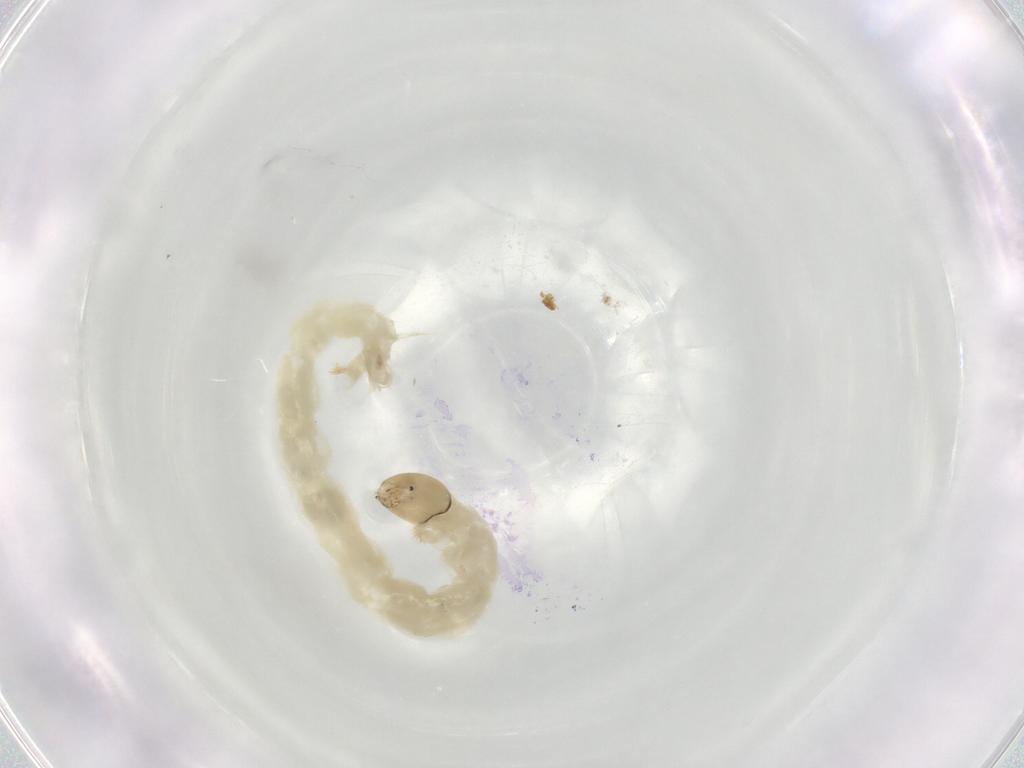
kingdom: Animalia
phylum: Arthropoda
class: Insecta
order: Diptera
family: Chironomidae
